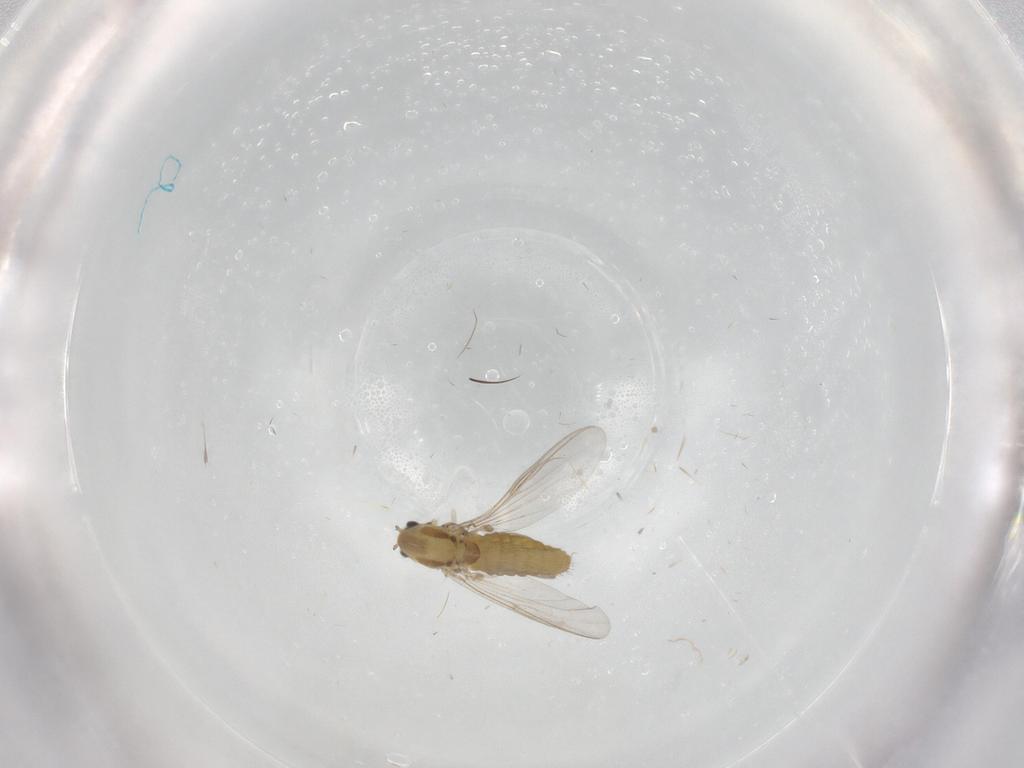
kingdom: Animalia
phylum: Arthropoda
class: Insecta
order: Diptera
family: Chironomidae
